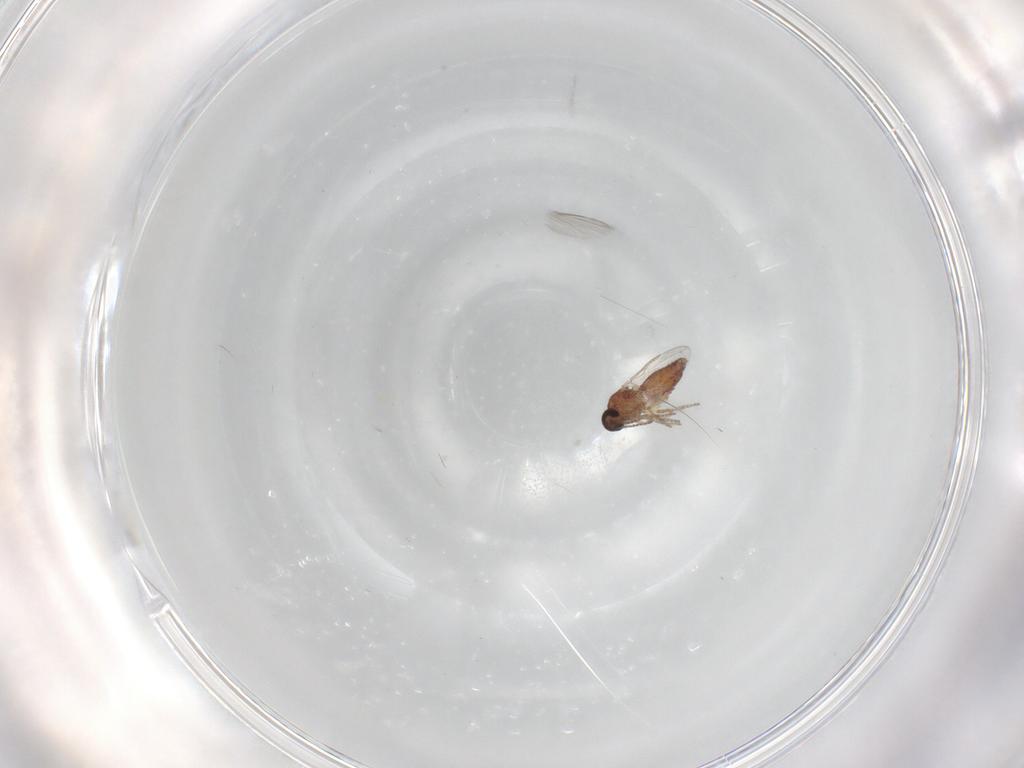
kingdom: Animalia
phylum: Arthropoda
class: Insecta
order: Diptera
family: Ceratopogonidae
